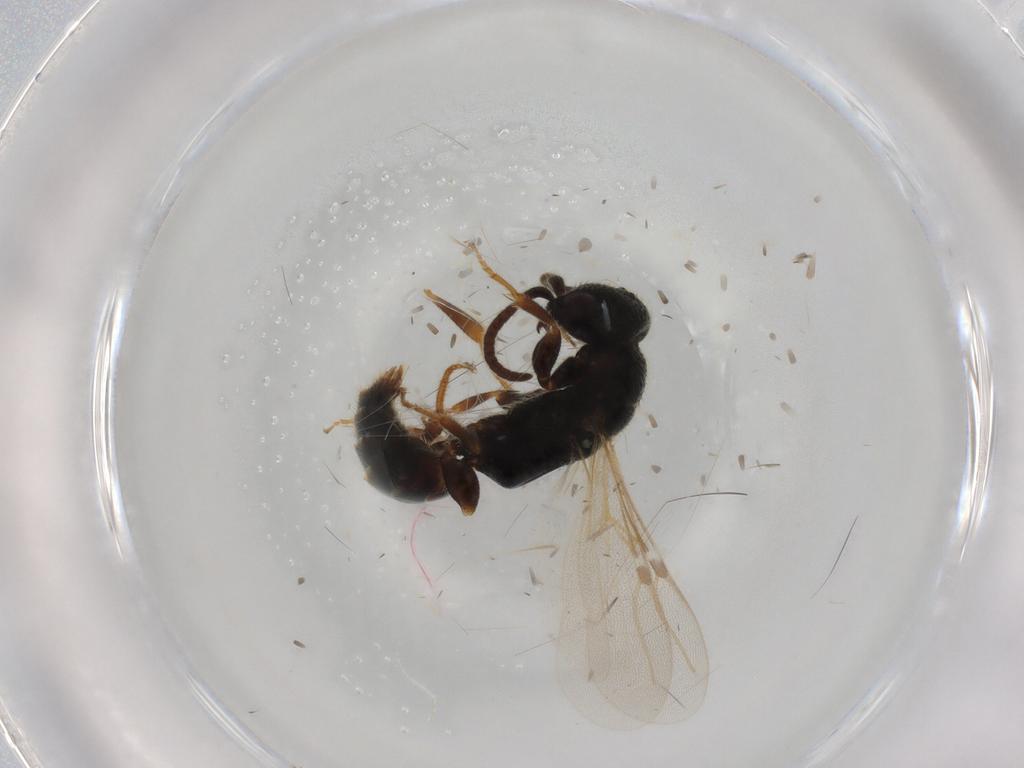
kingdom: Animalia
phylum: Arthropoda
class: Insecta
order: Hymenoptera
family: Bethylidae
